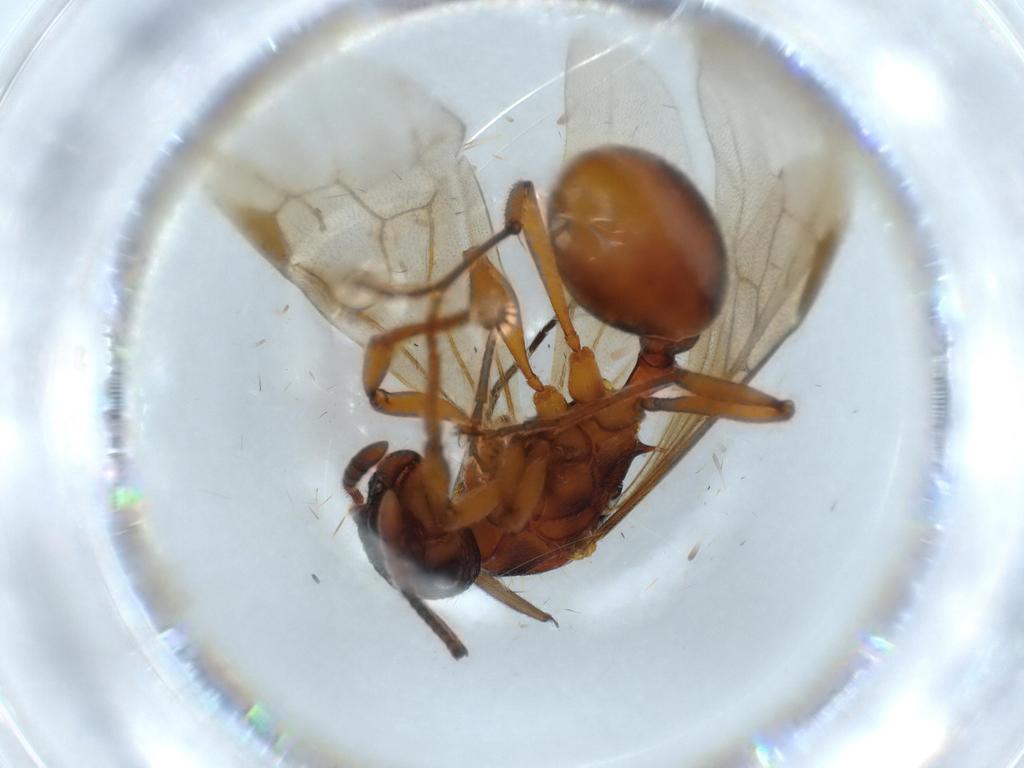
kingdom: Animalia
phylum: Arthropoda
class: Insecta
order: Hymenoptera
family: Formicidae
